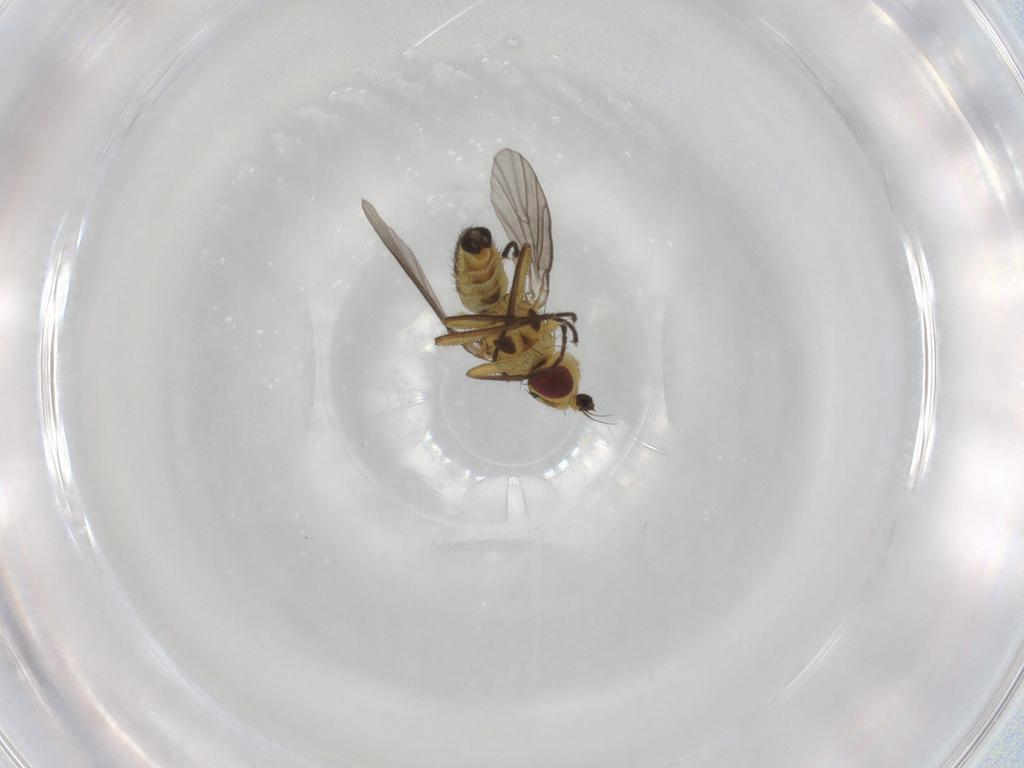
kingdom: Animalia
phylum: Arthropoda
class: Insecta
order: Diptera
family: Agromyzidae
